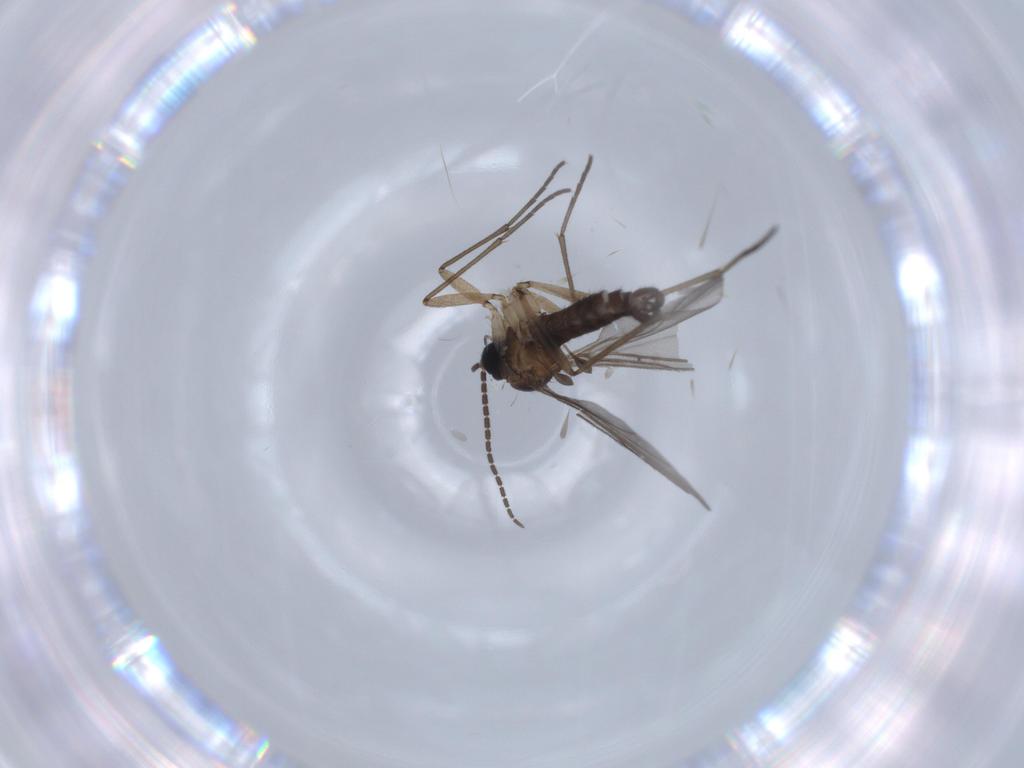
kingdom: Animalia
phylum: Arthropoda
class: Insecta
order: Diptera
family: Sciaridae
